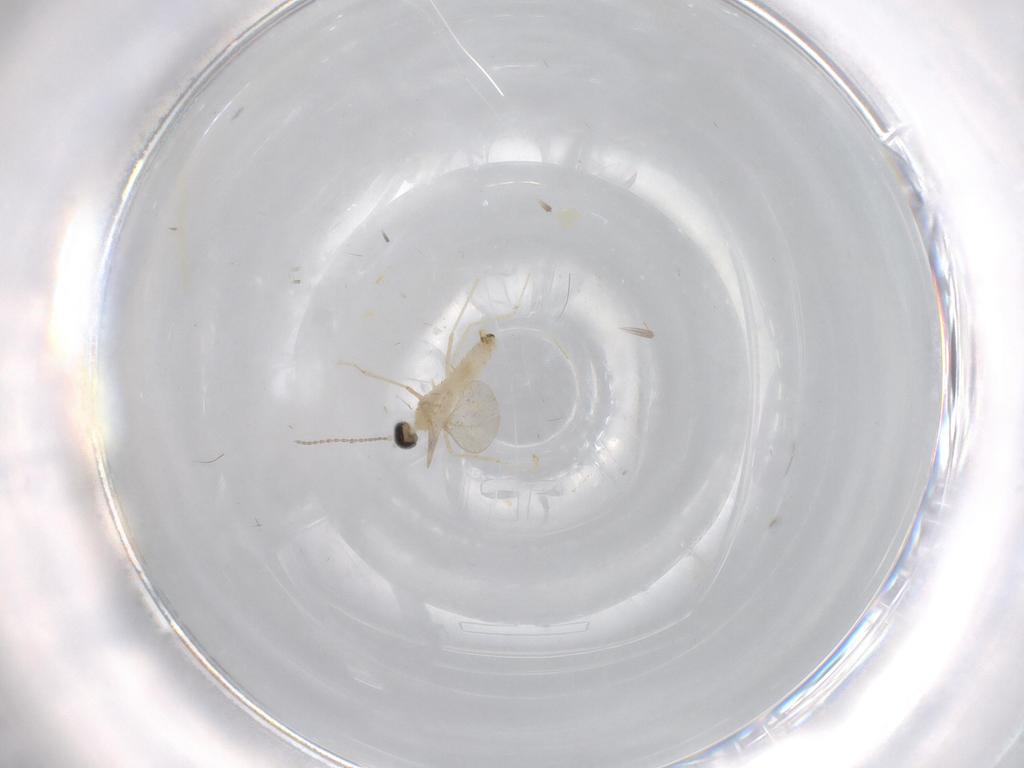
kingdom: Animalia
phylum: Arthropoda
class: Insecta
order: Diptera
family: Cecidomyiidae
